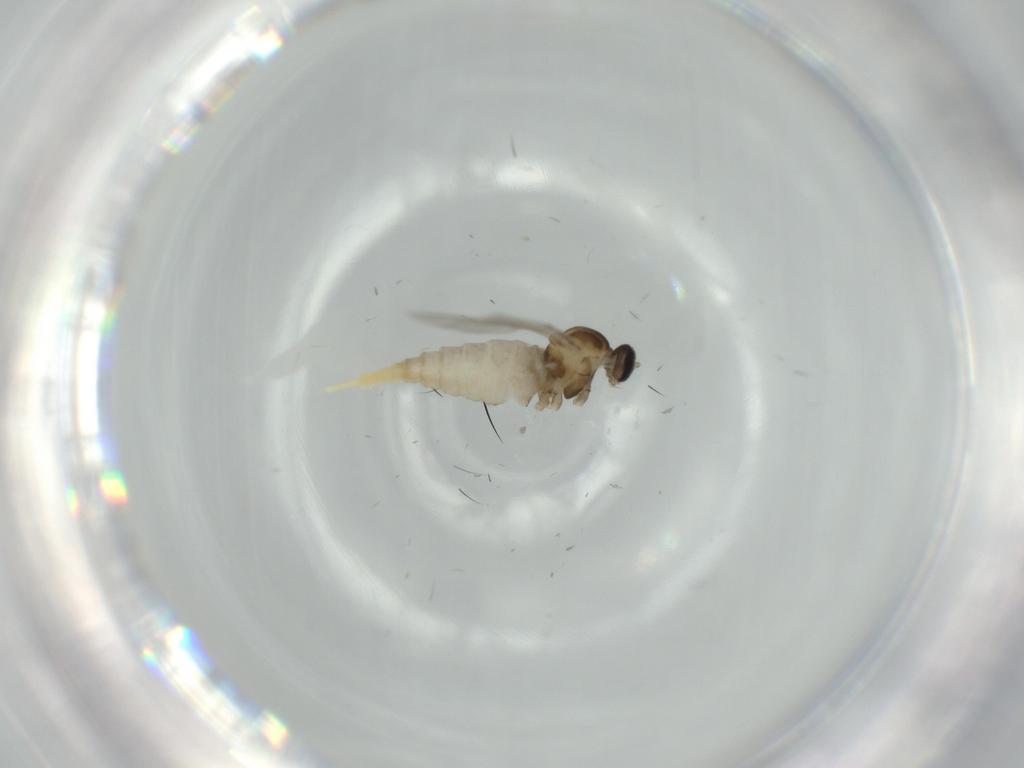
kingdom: Animalia
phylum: Arthropoda
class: Insecta
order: Diptera
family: Cecidomyiidae
